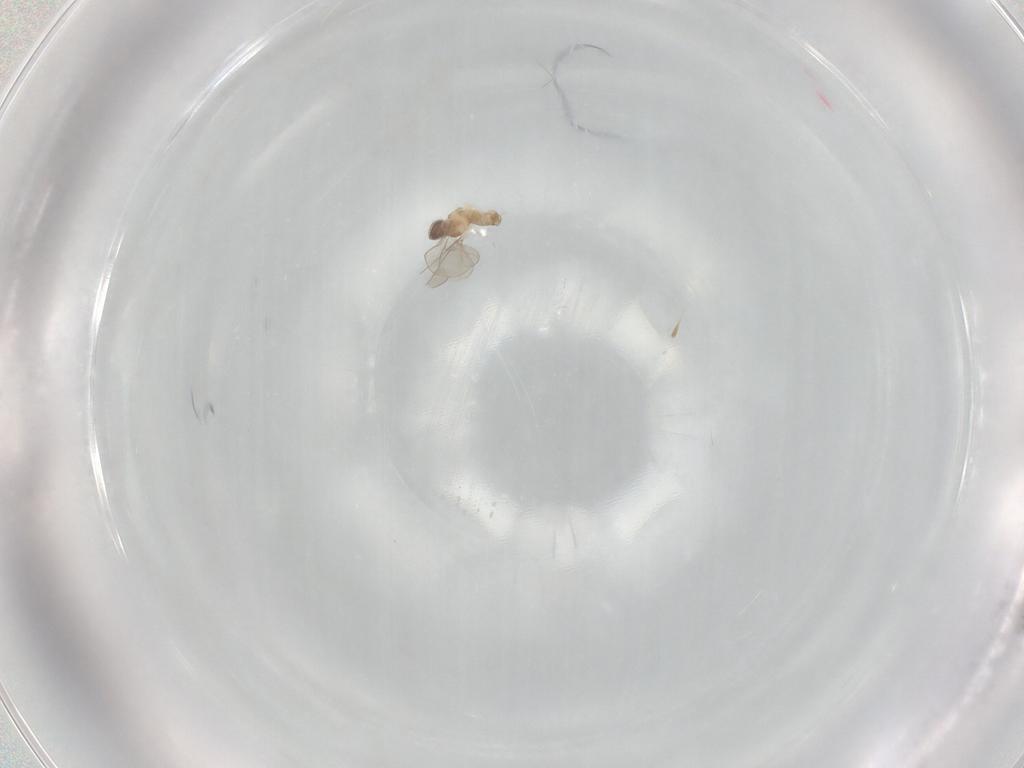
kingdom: Animalia
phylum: Arthropoda
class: Insecta
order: Diptera
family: Cecidomyiidae
